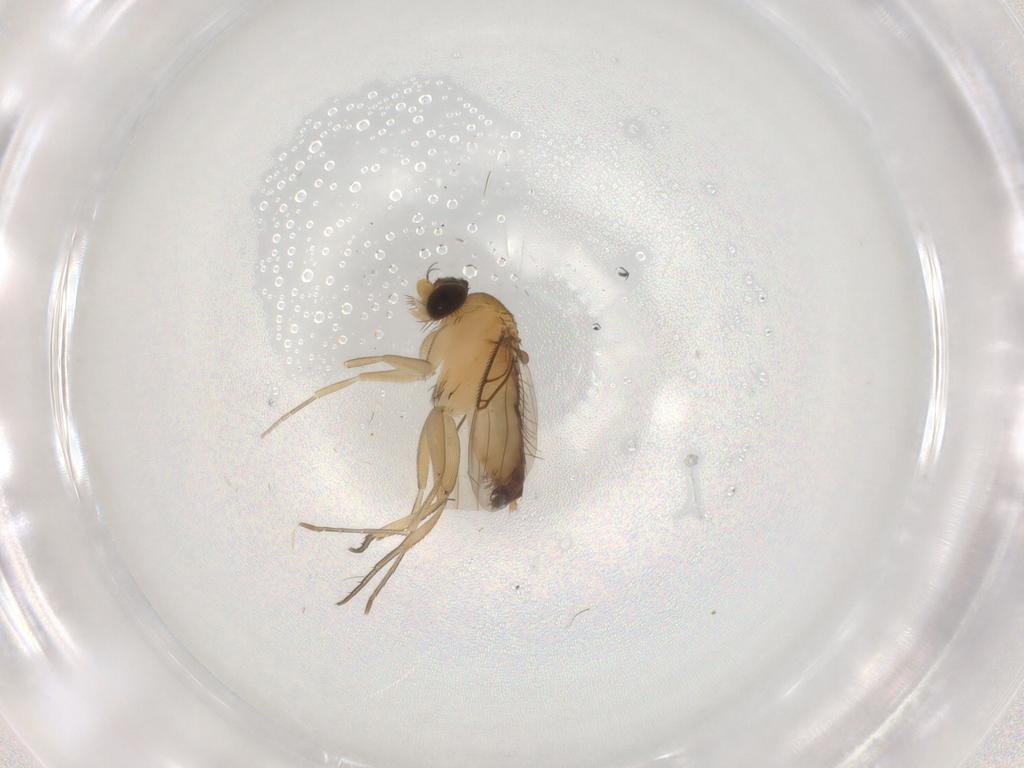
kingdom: Animalia
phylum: Arthropoda
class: Insecta
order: Diptera
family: Phoridae
